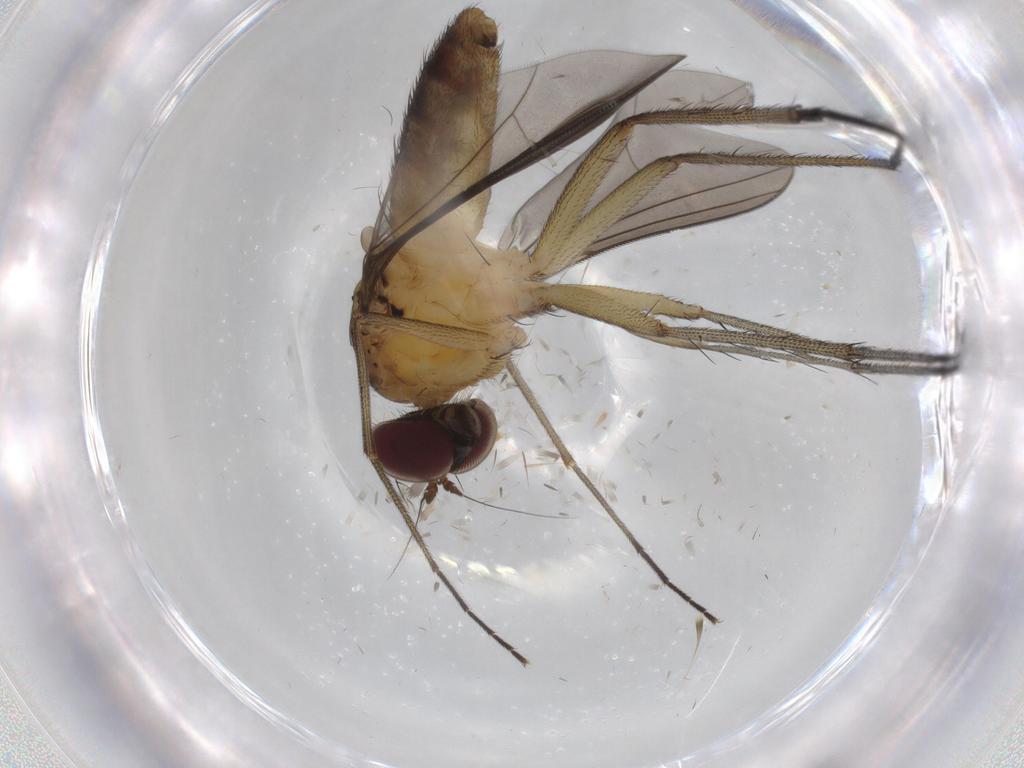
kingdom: Animalia
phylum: Arthropoda
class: Insecta
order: Diptera
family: Dolichopodidae
